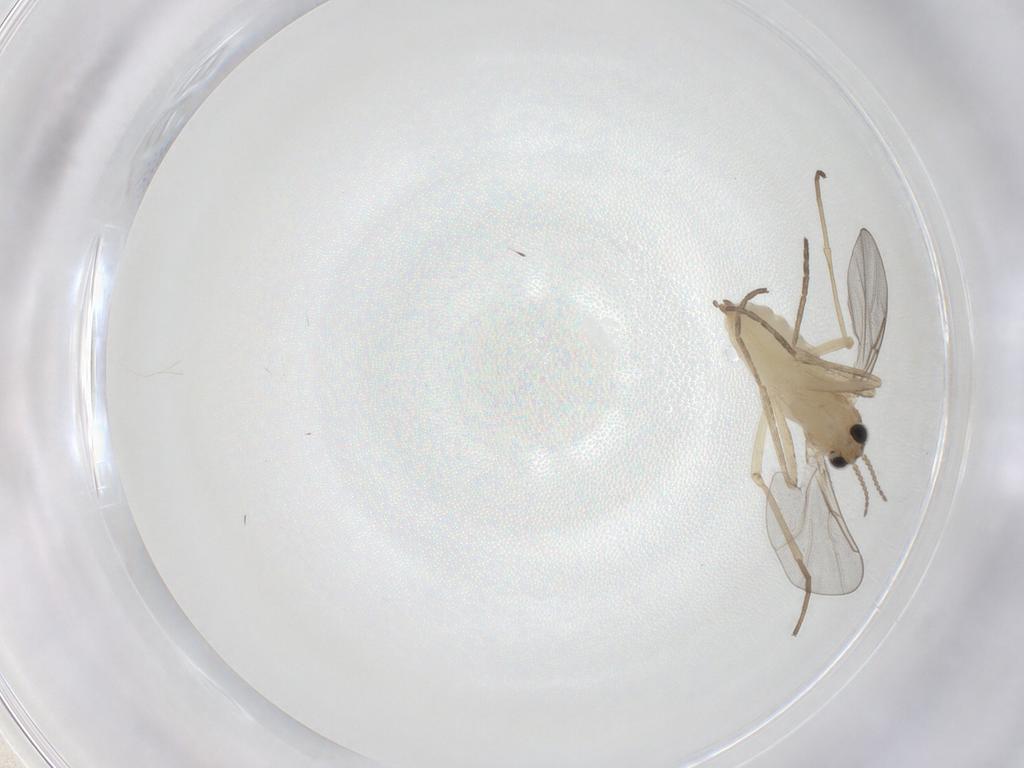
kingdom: Animalia
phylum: Arthropoda
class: Insecta
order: Diptera
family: Cecidomyiidae
